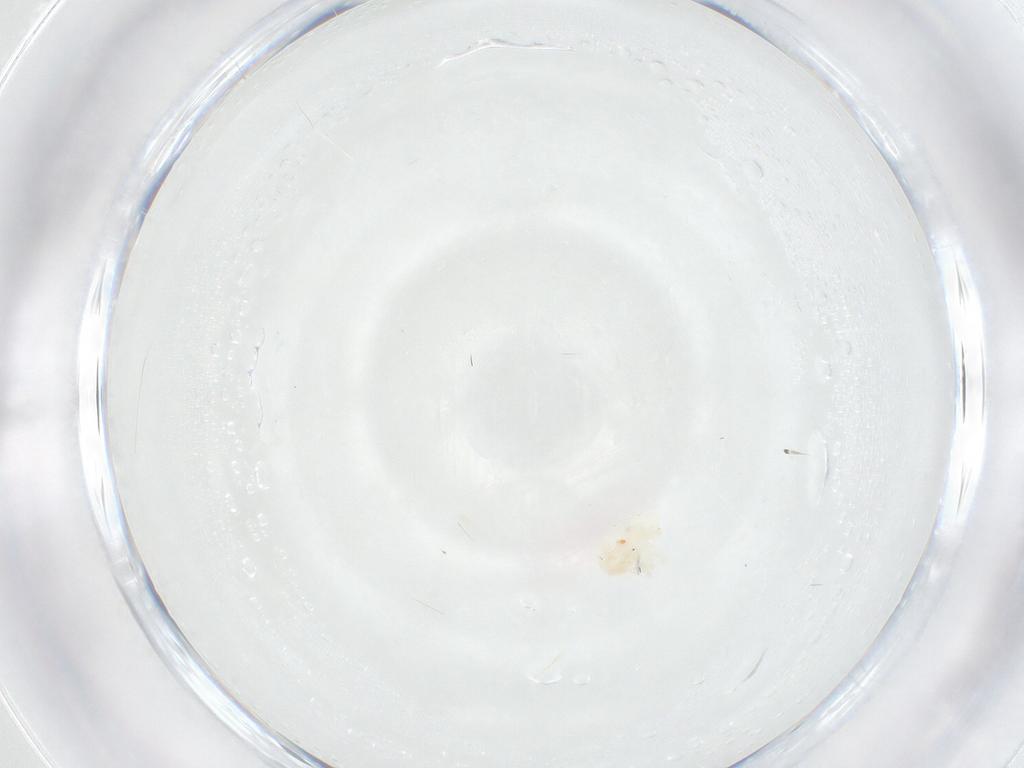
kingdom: Animalia
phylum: Arthropoda
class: Arachnida
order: Trombidiformes
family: Anystidae
